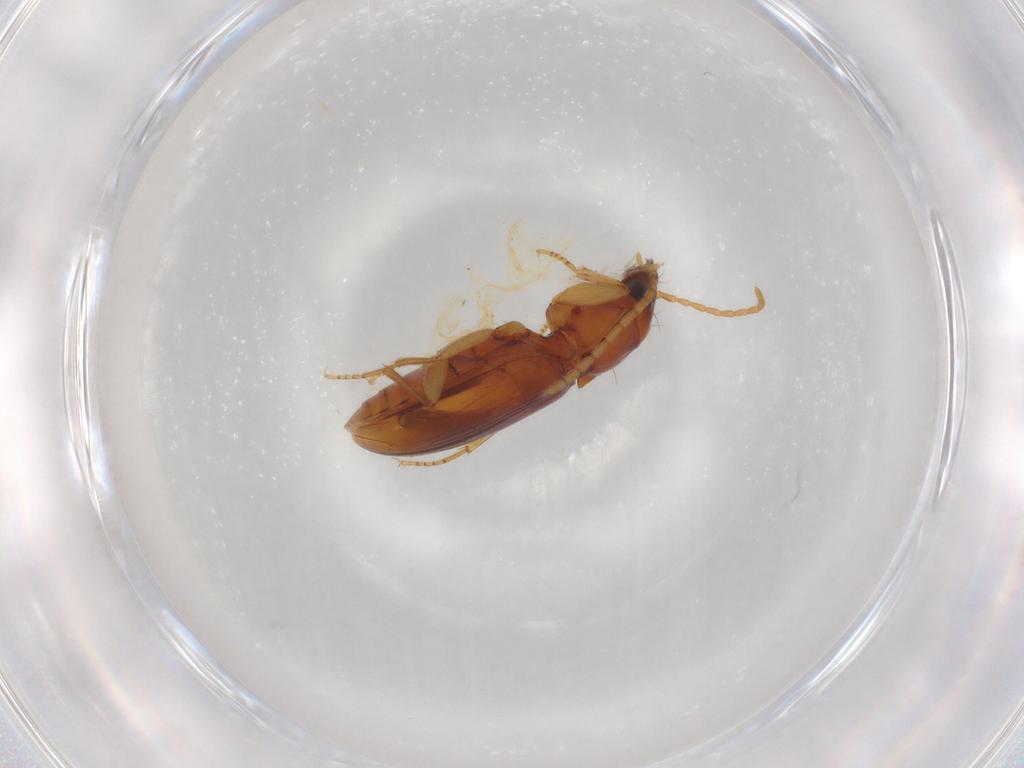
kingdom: Animalia
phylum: Arthropoda
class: Insecta
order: Coleoptera
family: Carabidae
